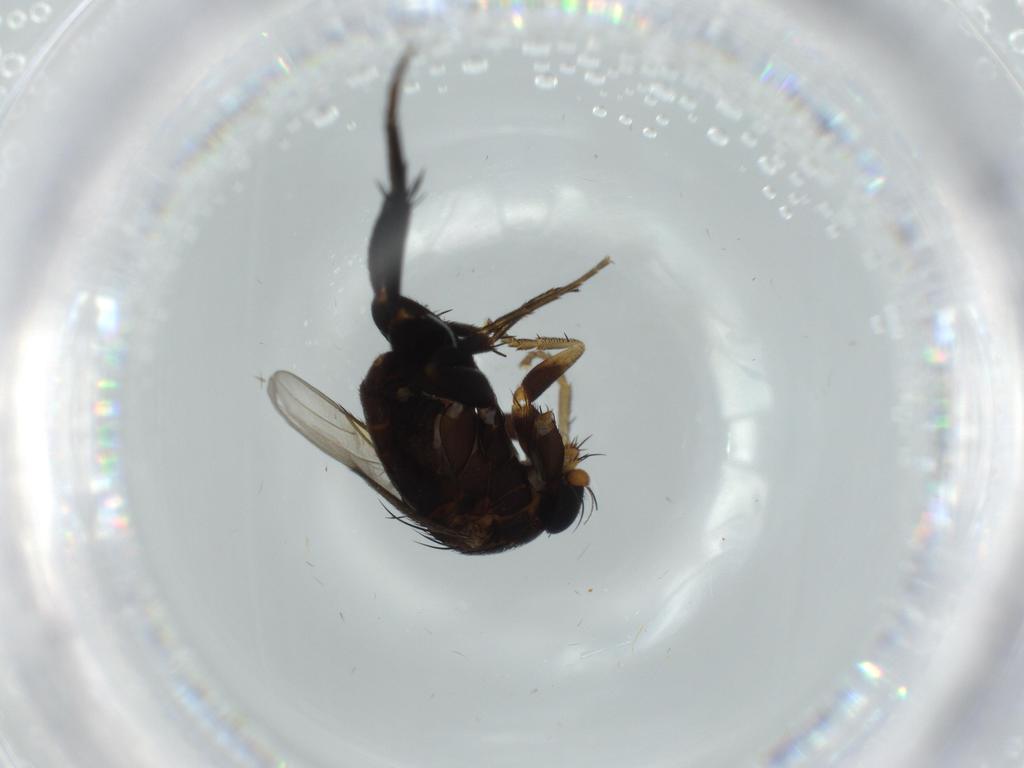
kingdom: Animalia
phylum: Arthropoda
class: Insecta
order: Diptera
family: Phoridae
